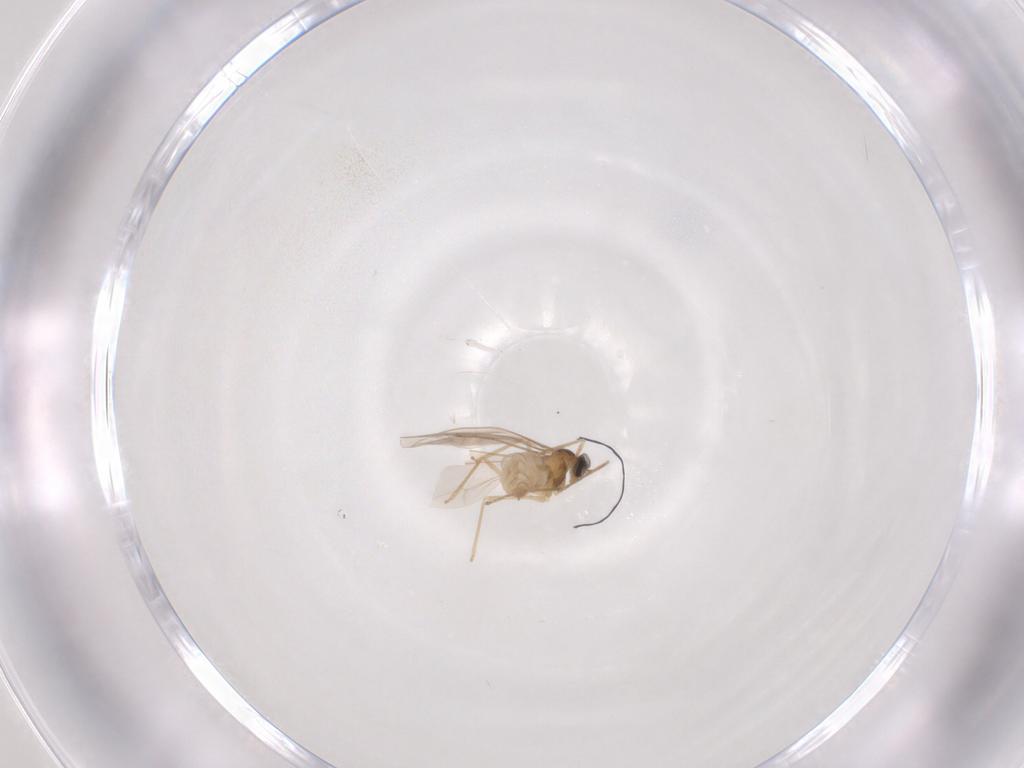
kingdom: Animalia
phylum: Arthropoda
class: Insecta
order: Diptera
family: Cecidomyiidae
